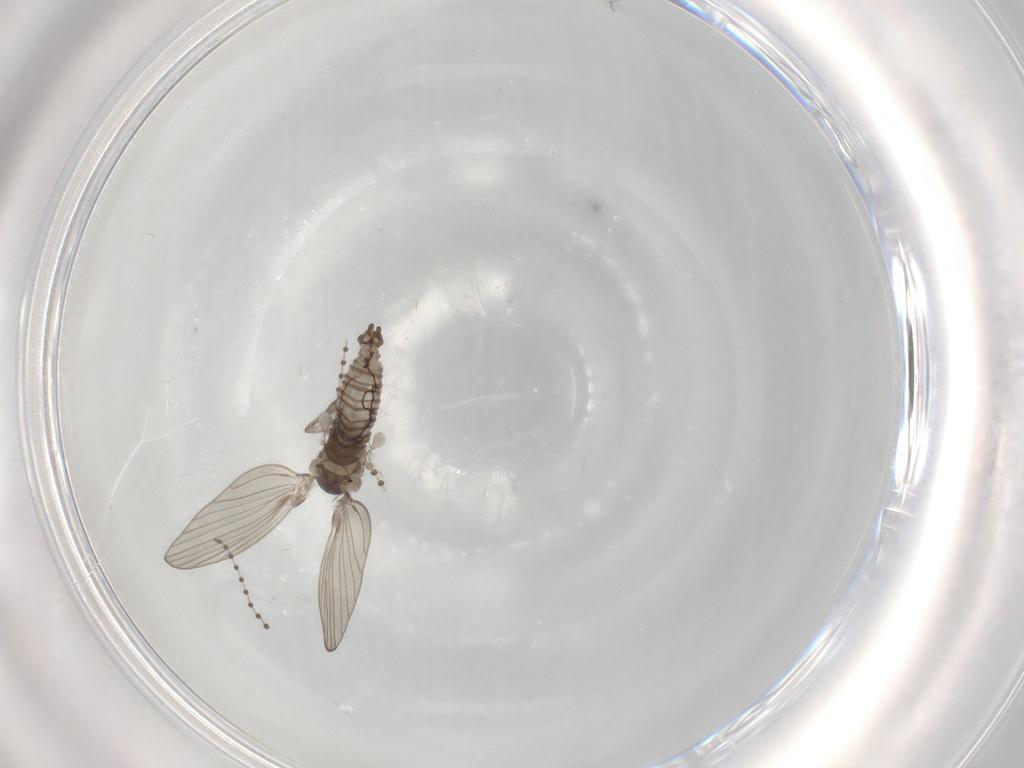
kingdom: Animalia
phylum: Arthropoda
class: Insecta
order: Diptera
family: Psychodidae
